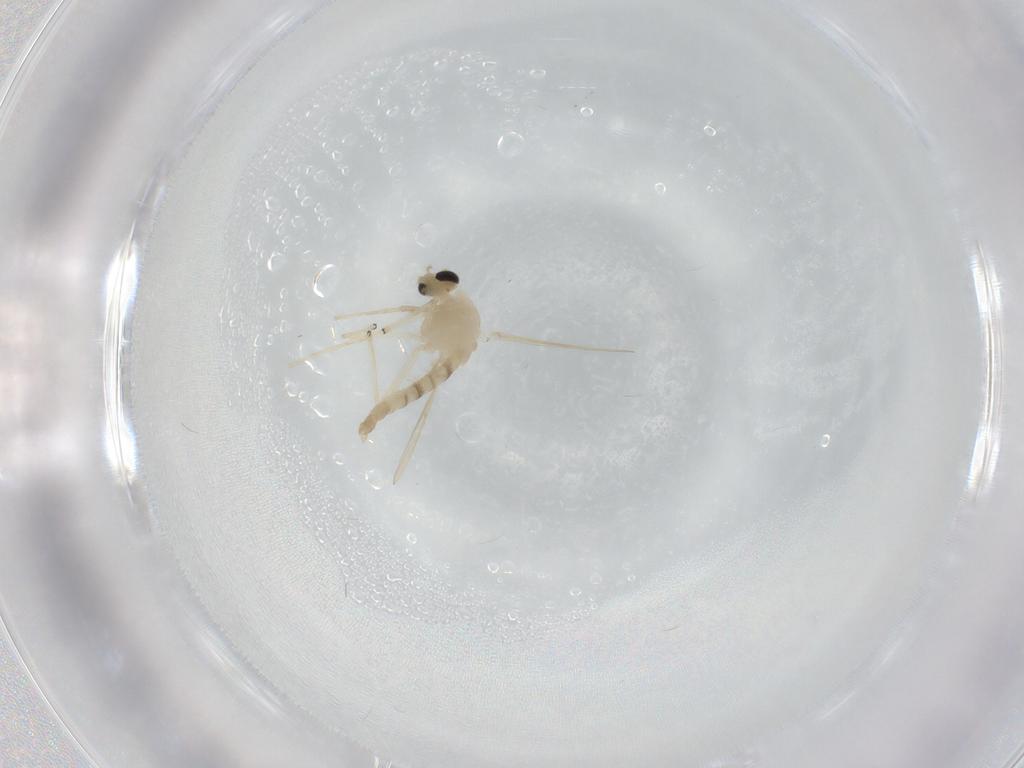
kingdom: Animalia
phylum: Arthropoda
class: Insecta
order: Diptera
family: Chironomidae
